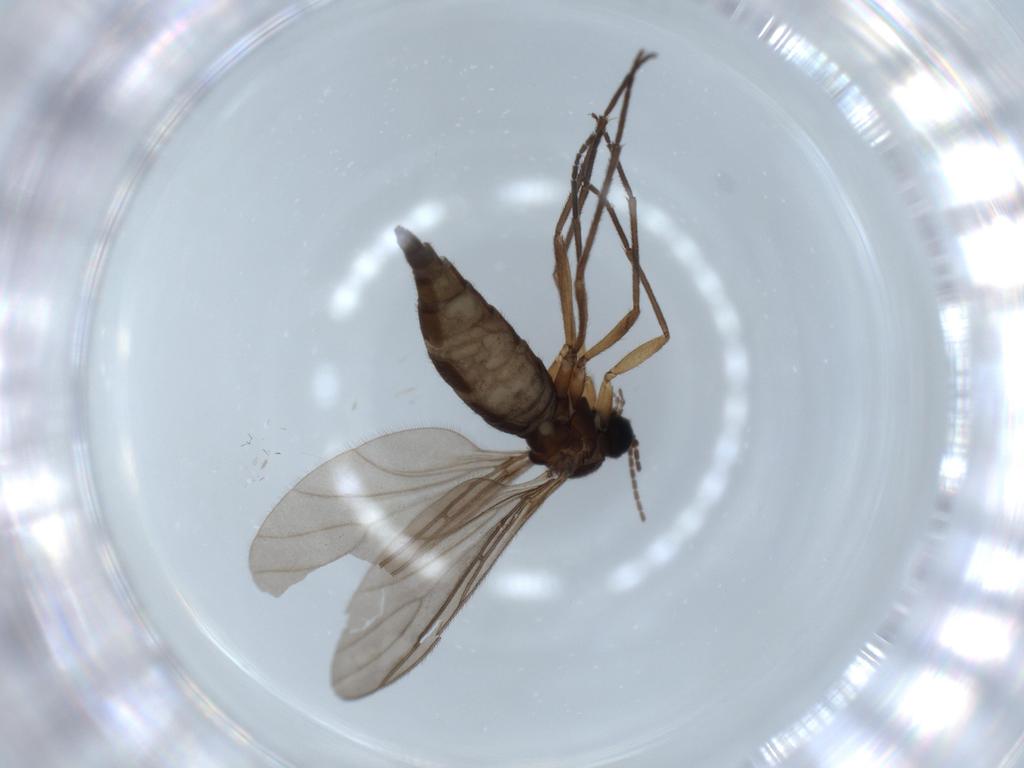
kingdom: Animalia
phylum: Arthropoda
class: Insecta
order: Diptera
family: Sciaridae
